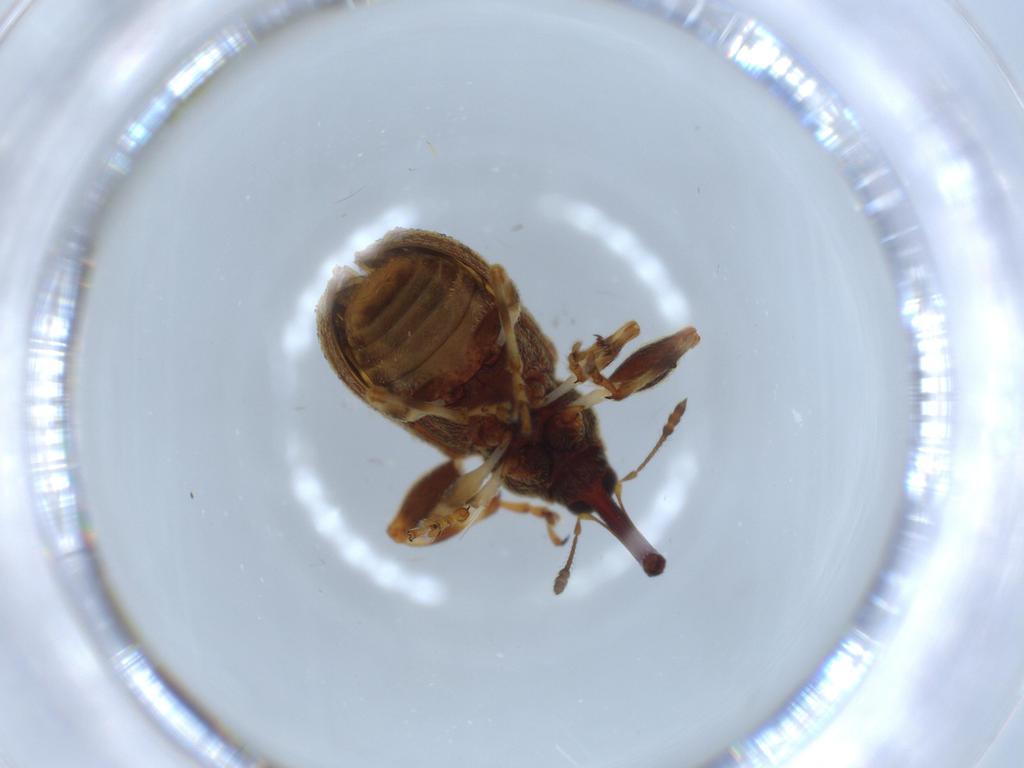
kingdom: Animalia
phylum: Arthropoda
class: Insecta
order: Coleoptera
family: Curculionidae
